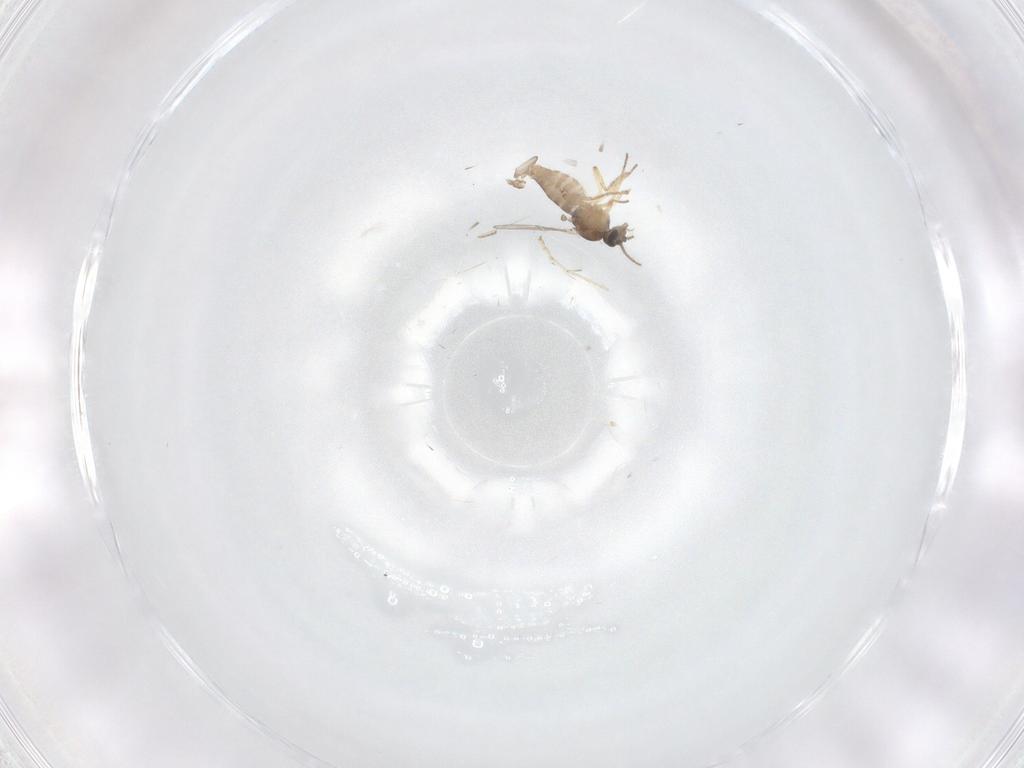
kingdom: Animalia
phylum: Arthropoda
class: Insecta
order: Diptera
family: Ceratopogonidae
